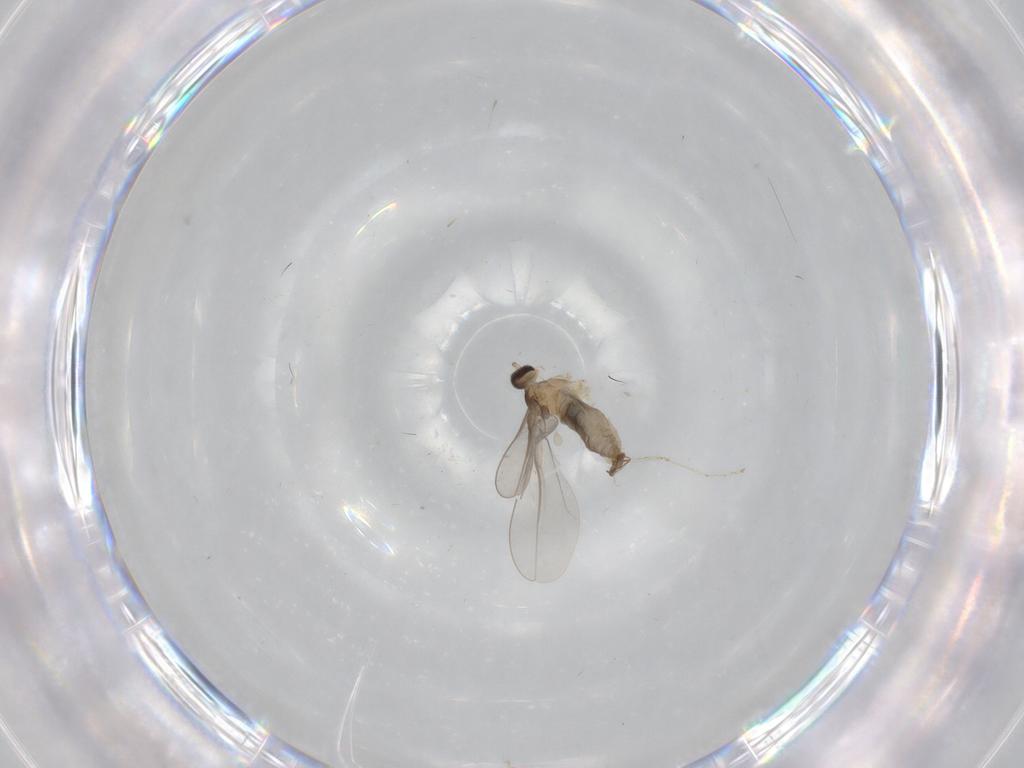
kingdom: Animalia
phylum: Arthropoda
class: Insecta
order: Diptera
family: Cecidomyiidae
